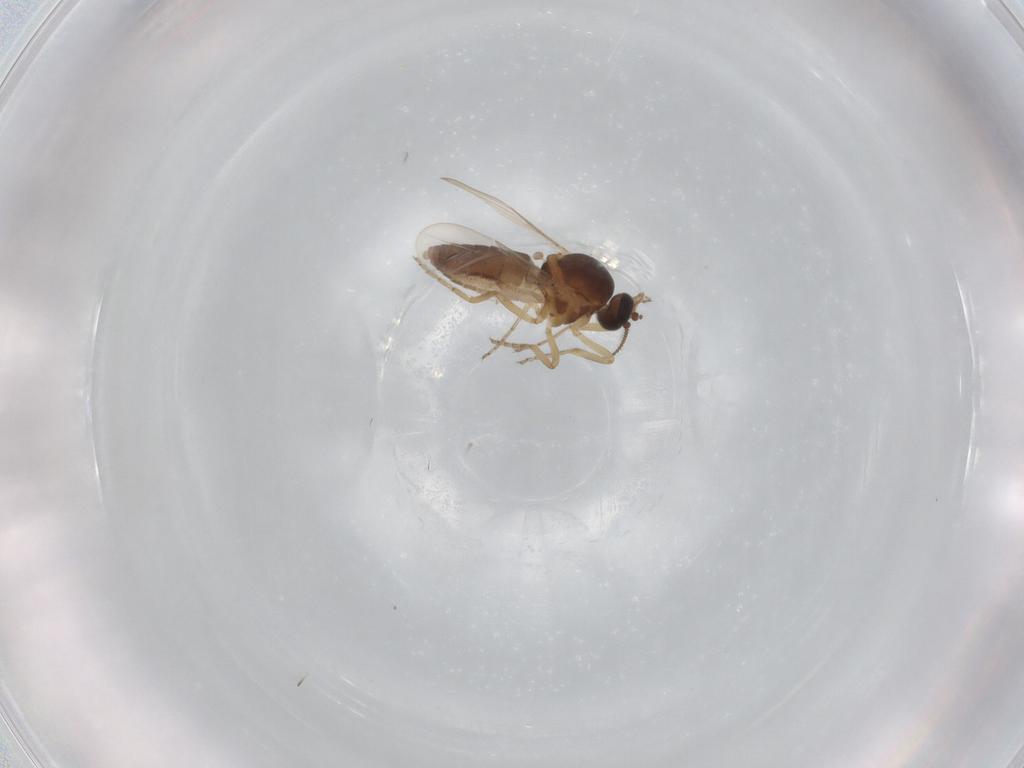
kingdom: Animalia
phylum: Arthropoda
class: Insecta
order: Diptera
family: Ceratopogonidae
